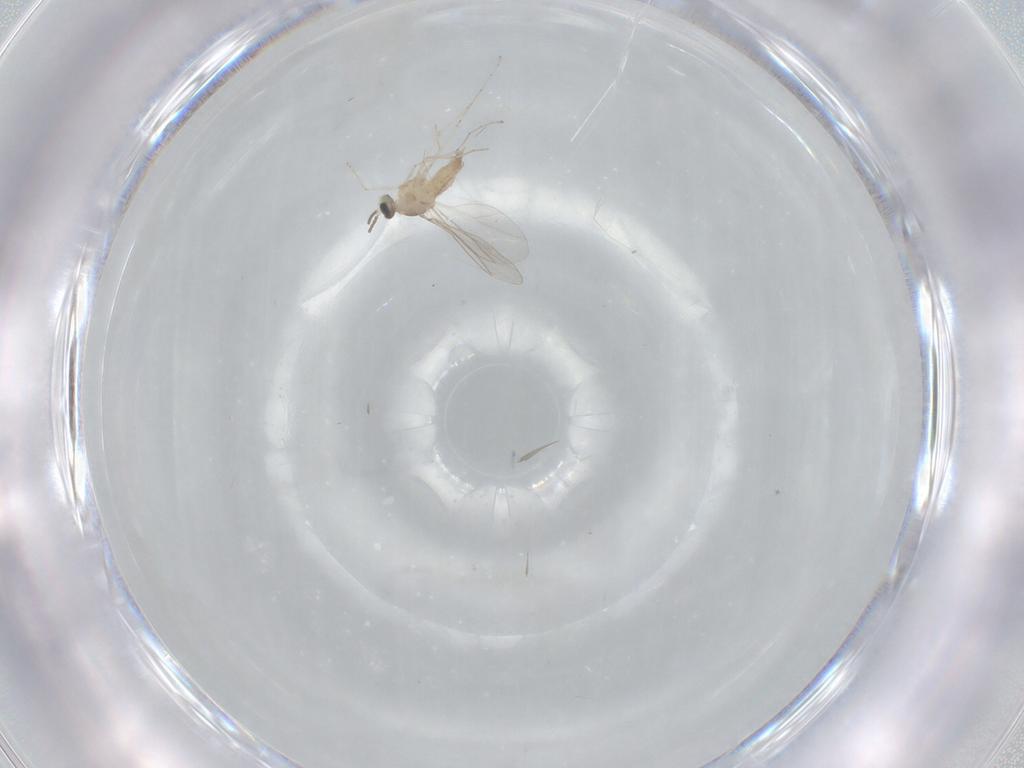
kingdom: Animalia
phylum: Arthropoda
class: Insecta
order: Diptera
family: Cecidomyiidae
